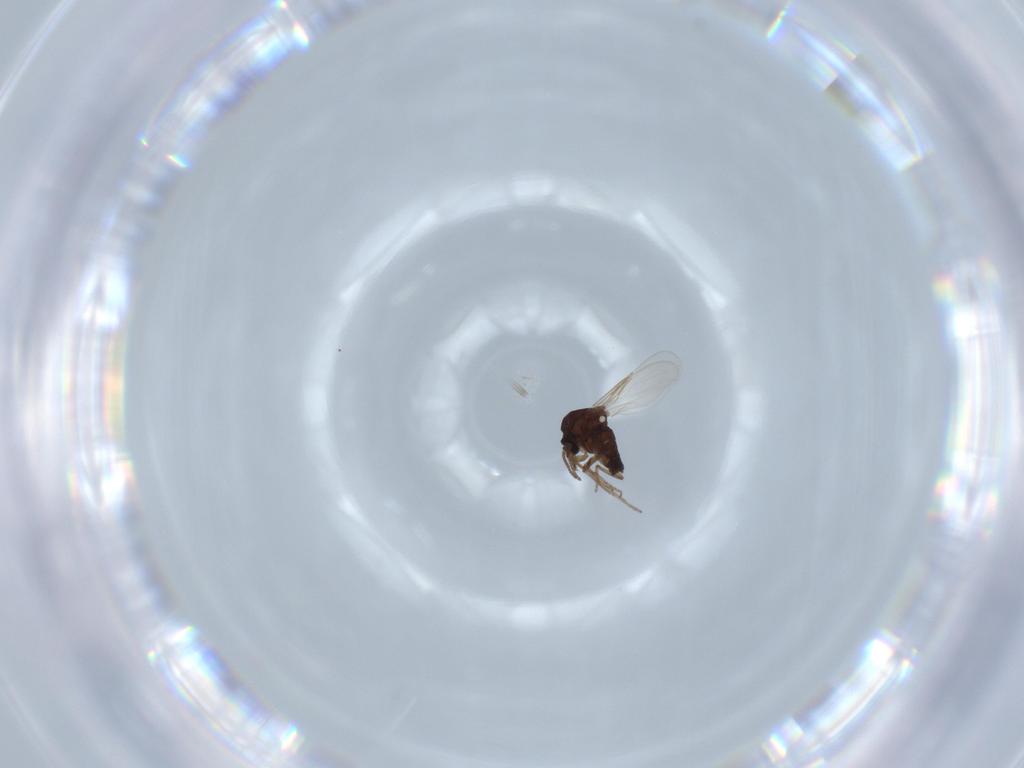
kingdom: Animalia
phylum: Arthropoda
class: Insecta
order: Diptera
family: Ceratopogonidae
